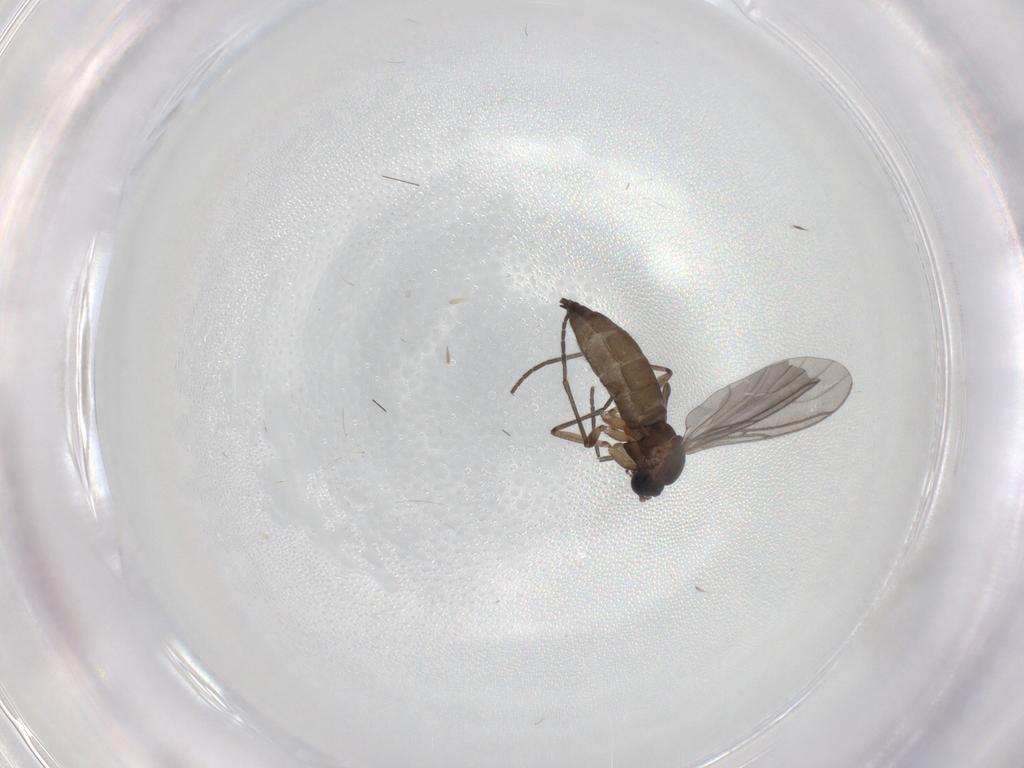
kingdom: Animalia
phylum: Arthropoda
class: Insecta
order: Diptera
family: Sciaridae
